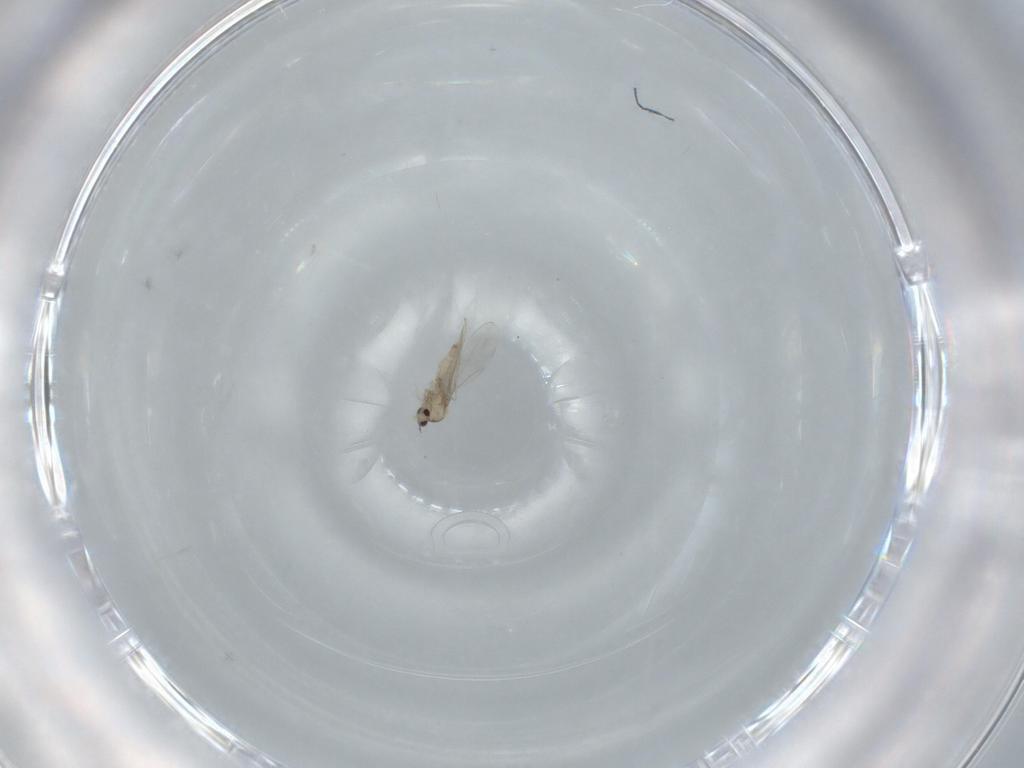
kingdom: Animalia
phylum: Arthropoda
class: Insecta
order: Diptera
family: Cecidomyiidae
